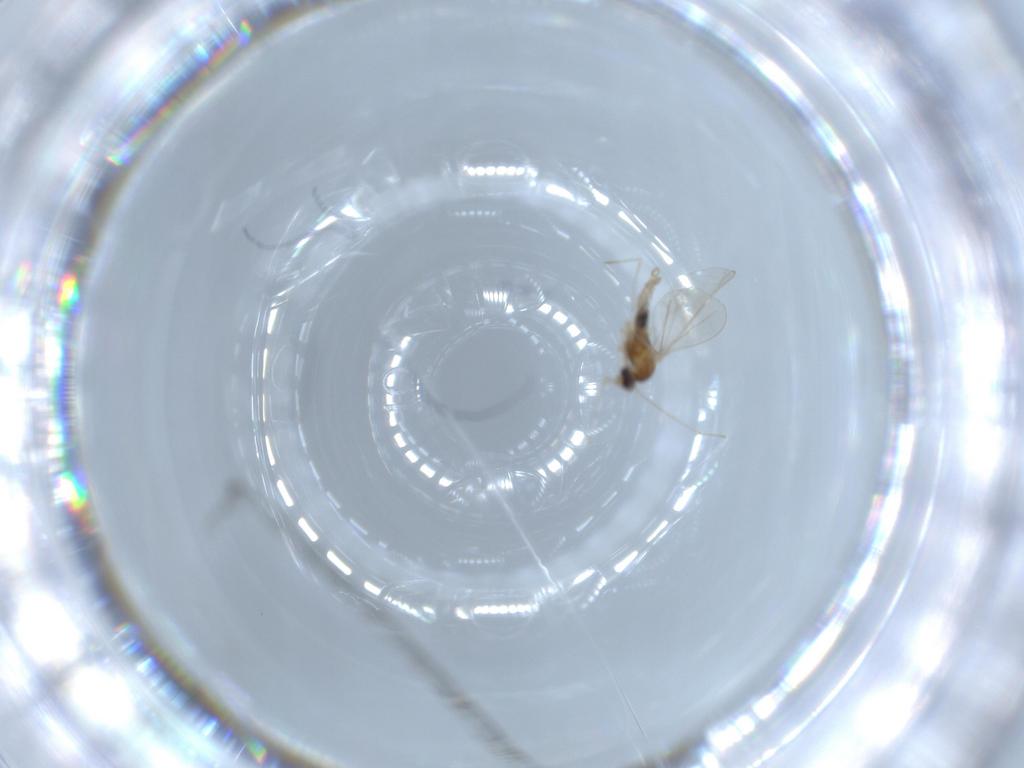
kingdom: Animalia
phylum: Arthropoda
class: Insecta
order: Diptera
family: Cecidomyiidae
